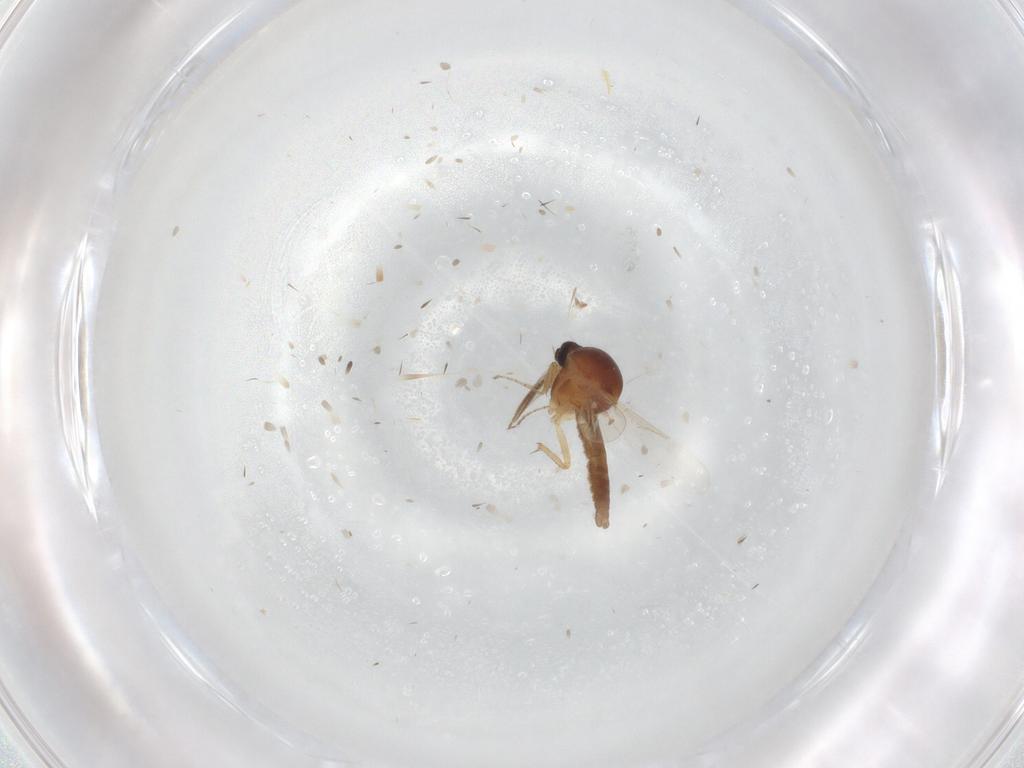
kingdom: Animalia
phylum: Arthropoda
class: Insecta
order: Diptera
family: Ceratopogonidae
